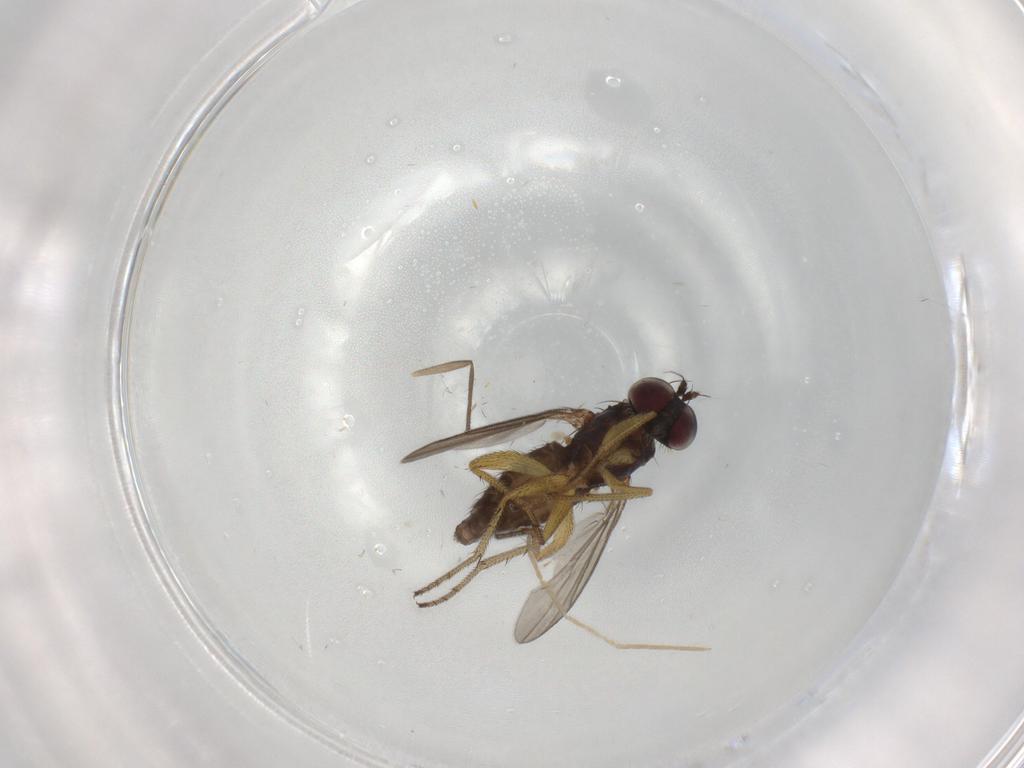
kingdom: Animalia
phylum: Arthropoda
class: Insecta
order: Diptera
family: Dolichopodidae
